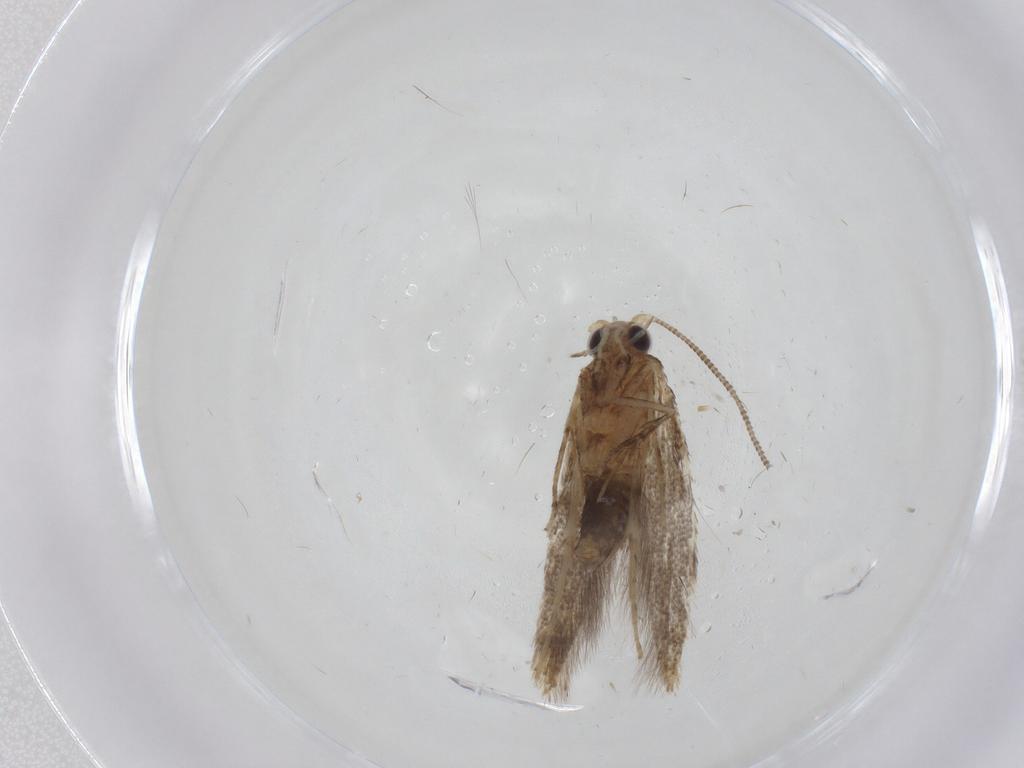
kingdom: Animalia
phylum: Arthropoda
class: Insecta
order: Lepidoptera
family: Tineidae
